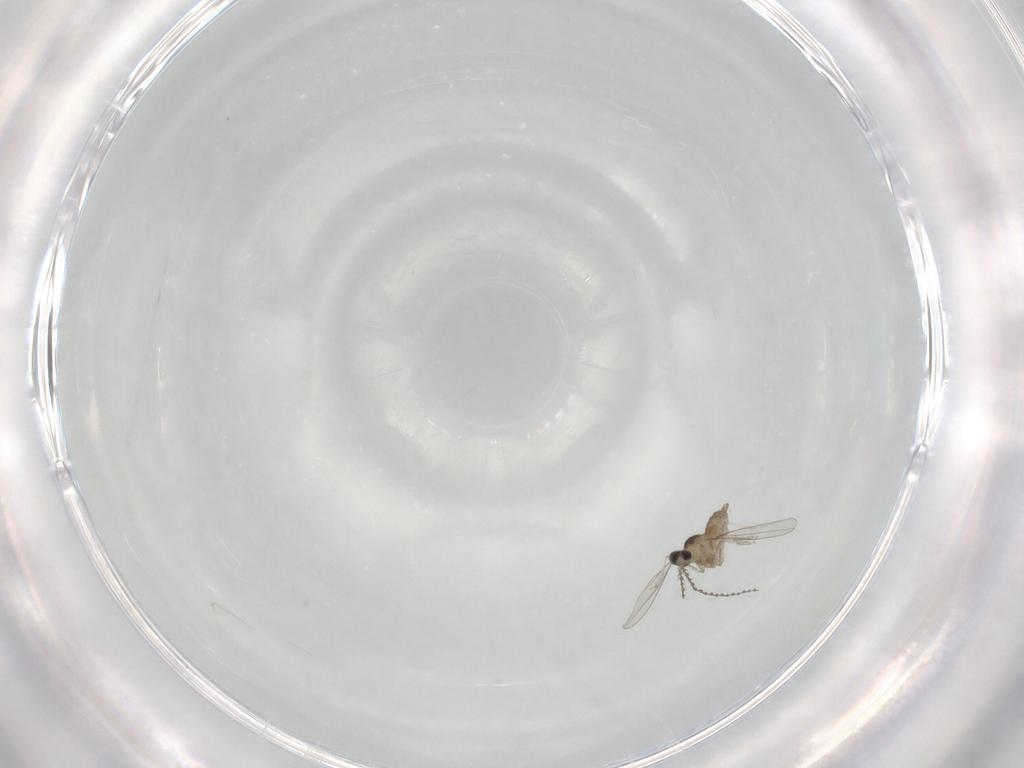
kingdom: Animalia
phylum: Arthropoda
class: Insecta
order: Diptera
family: Cecidomyiidae
